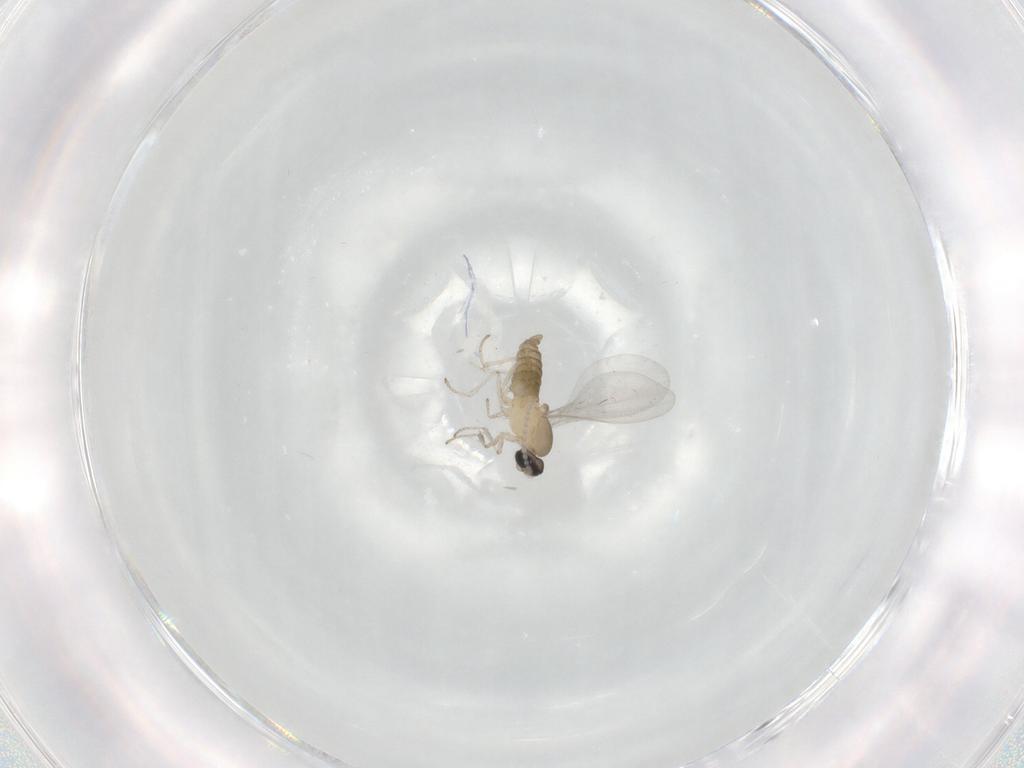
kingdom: Animalia
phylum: Arthropoda
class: Insecta
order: Diptera
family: Cecidomyiidae
